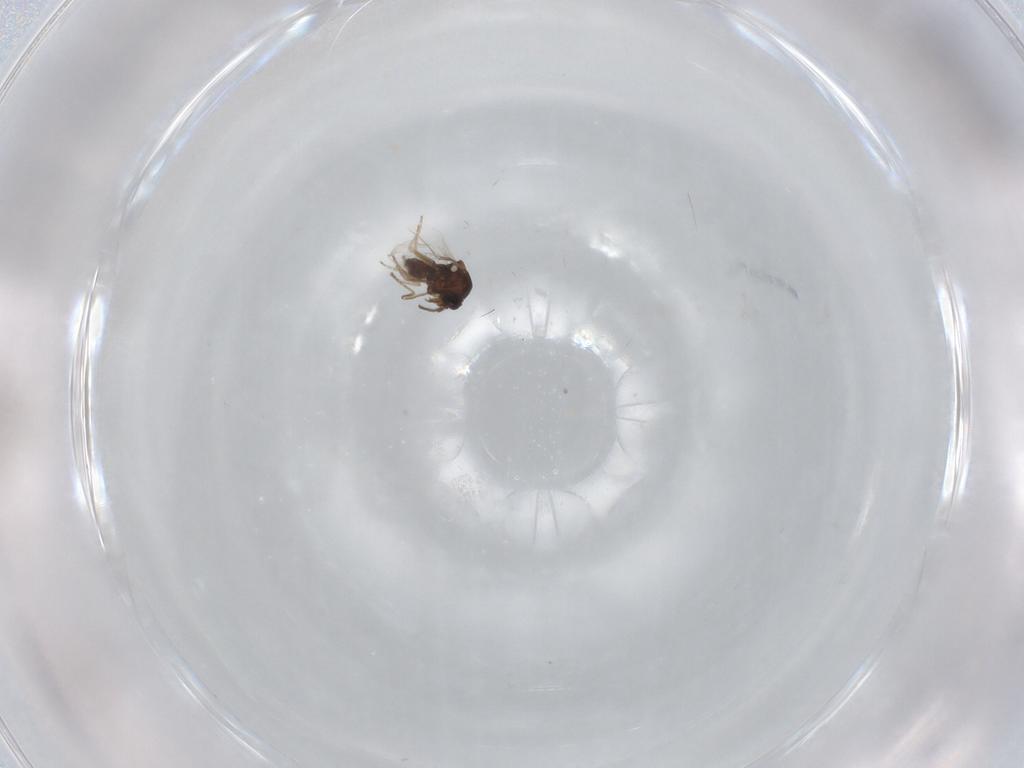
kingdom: Animalia
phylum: Arthropoda
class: Insecta
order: Diptera
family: Ceratopogonidae
